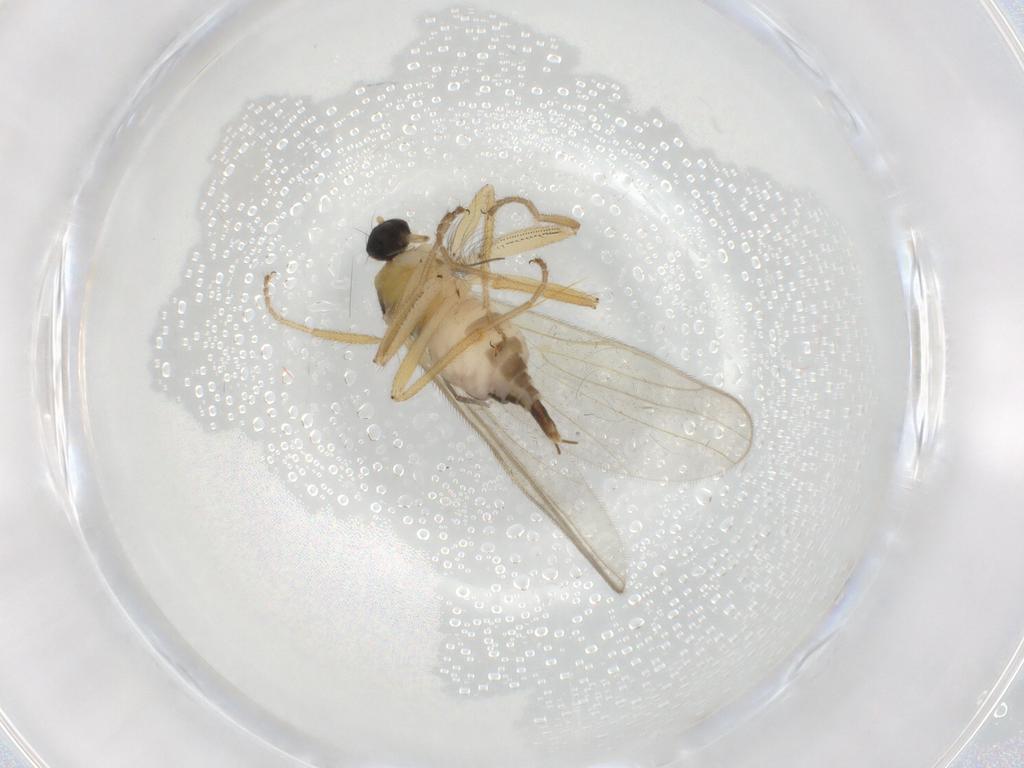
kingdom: Animalia
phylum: Arthropoda
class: Insecta
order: Diptera
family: Chironomidae
